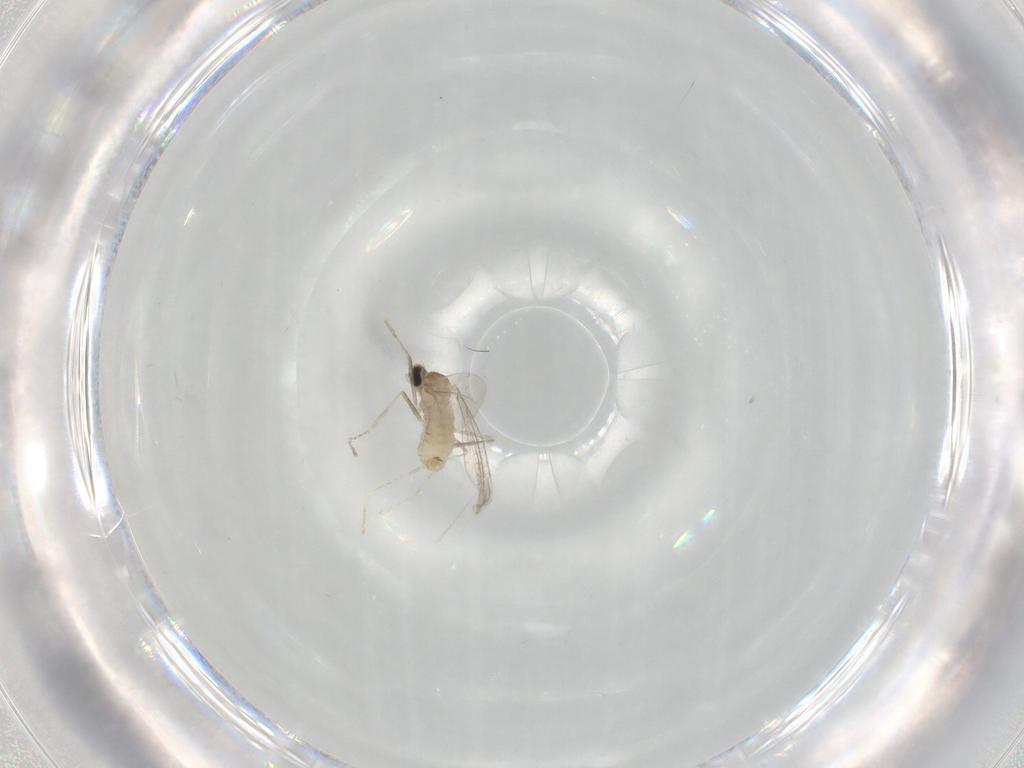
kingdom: Animalia
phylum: Arthropoda
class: Insecta
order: Diptera
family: Cecidomyiidae
